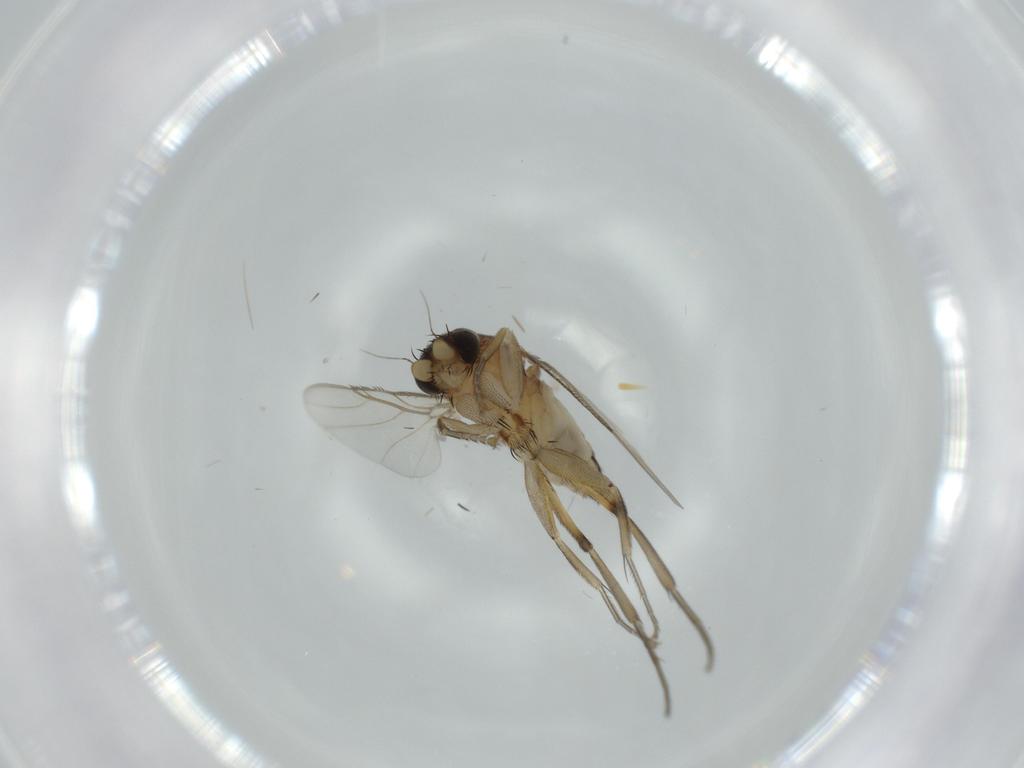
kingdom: Animalia
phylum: Arthropoda
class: Insecta
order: Diptera
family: Phoridae
